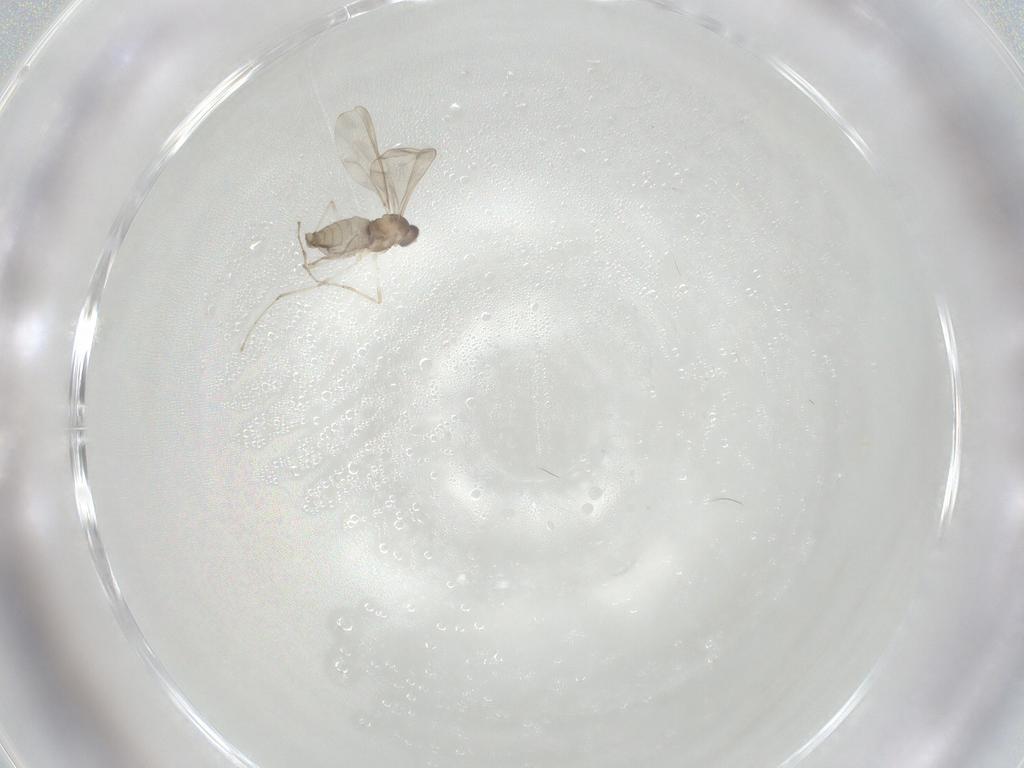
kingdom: Animalia
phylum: Arthropoda
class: Insecta
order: Diptera
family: Cecidomyiidae
